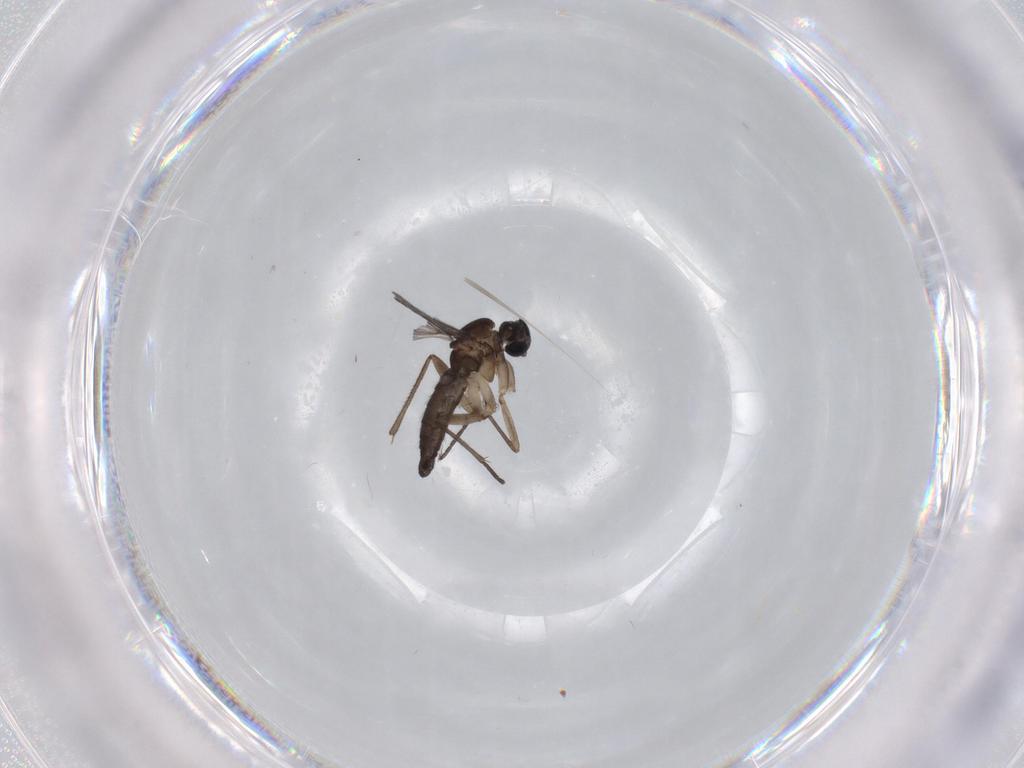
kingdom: Animalia
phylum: Arthropoda
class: Insecta
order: Diptera
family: Sciaridae
